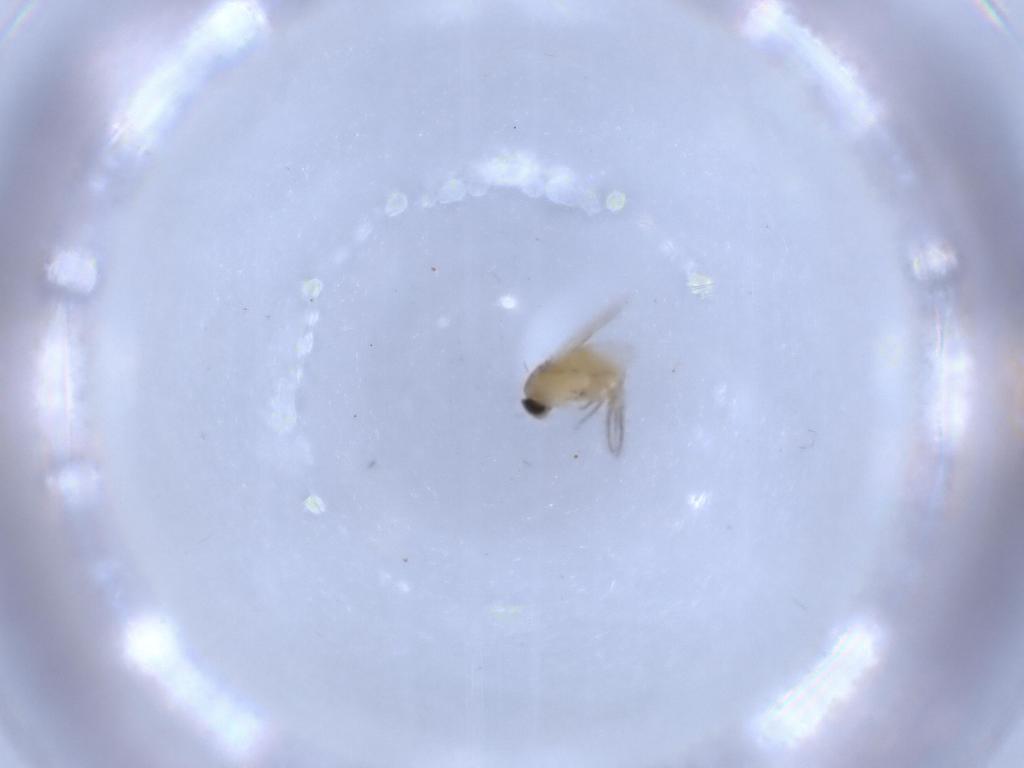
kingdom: Animalia
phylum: Arthropoda
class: Insecta
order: Diptera
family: Phoridae
